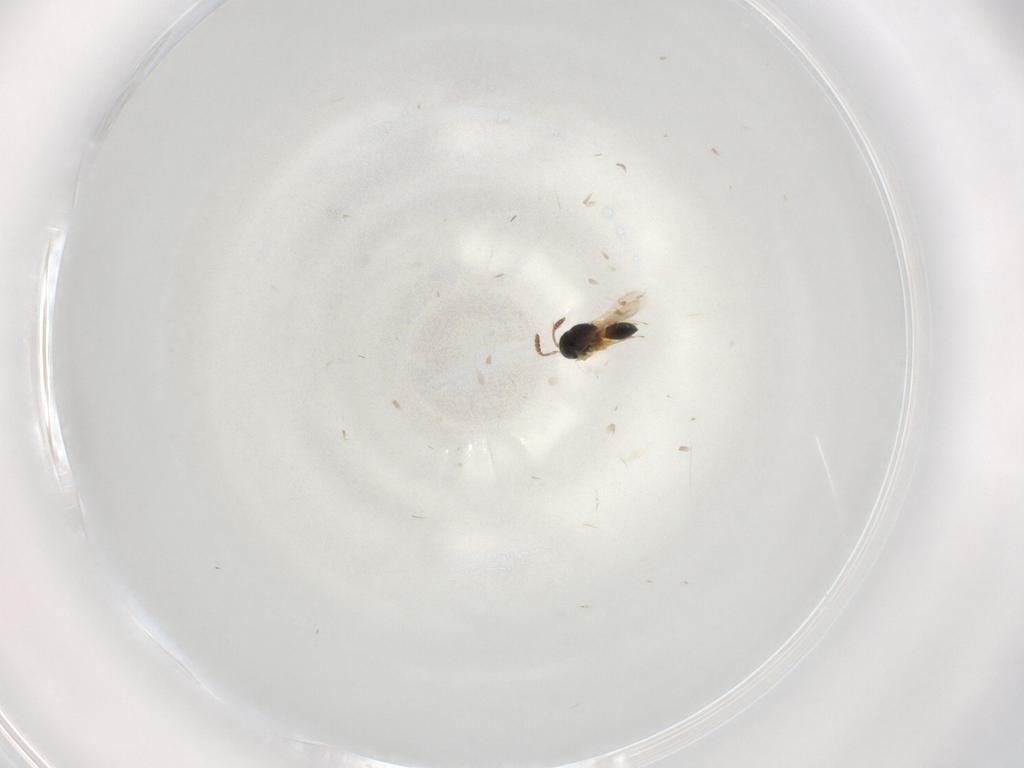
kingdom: Animalia
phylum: Arthropoda
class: Insecta
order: Hymenoptera
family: Scelionidae
